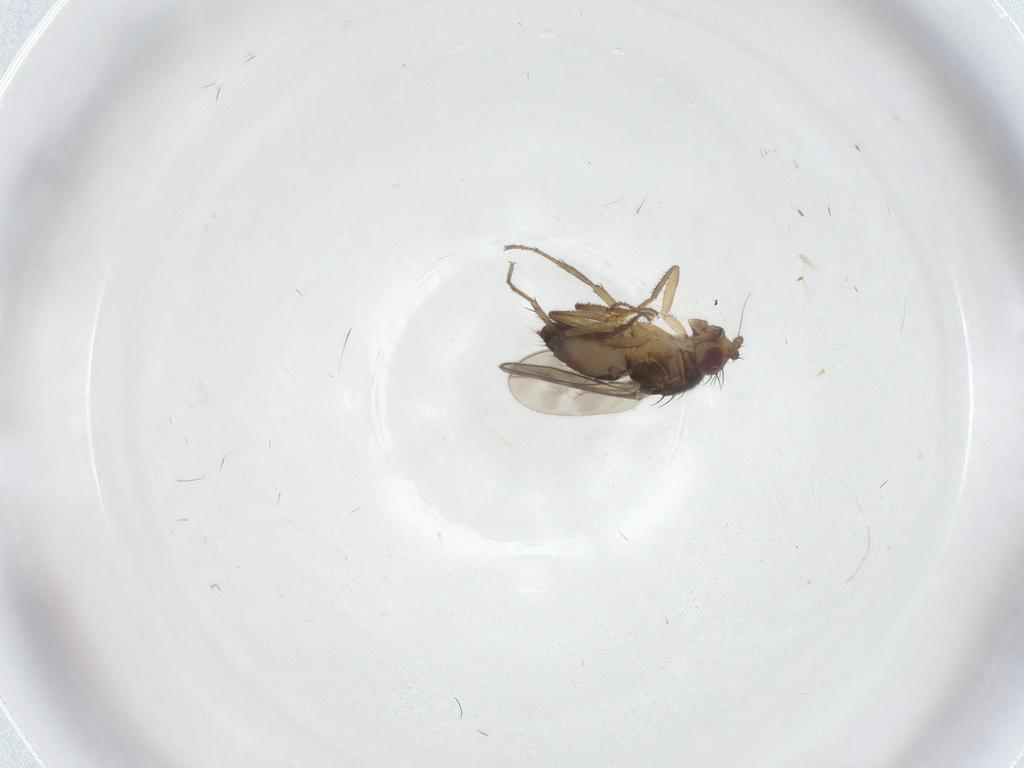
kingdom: Animalia
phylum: Arthropoda
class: Insecta
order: Diptera
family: Sphaeroceridae
